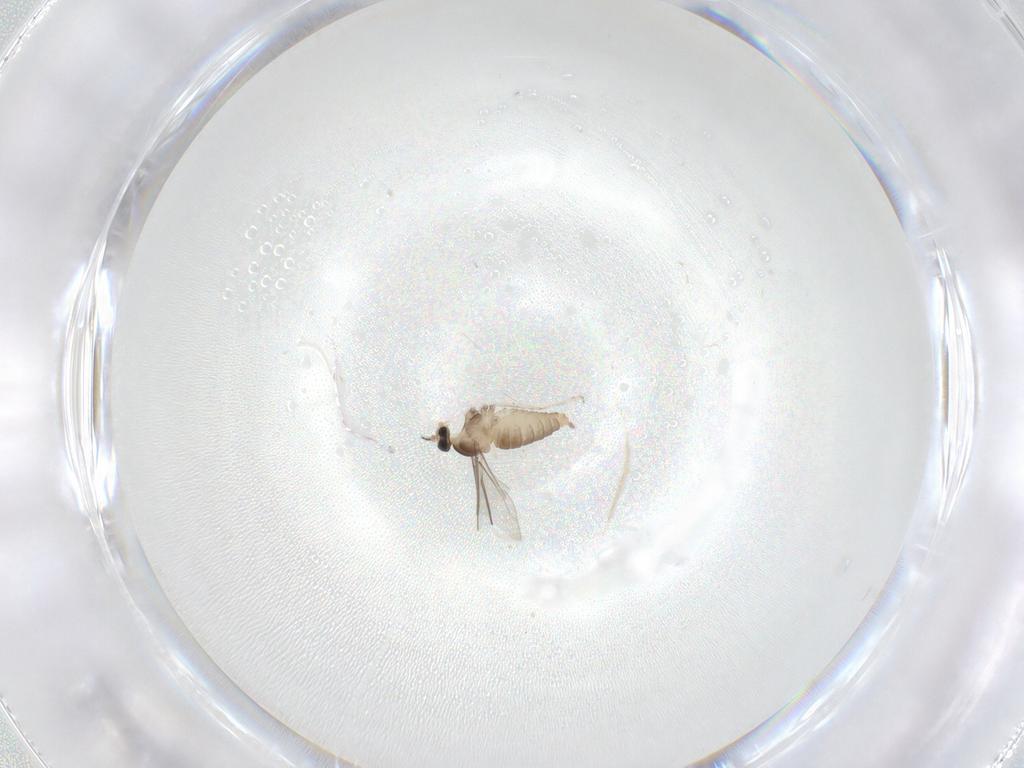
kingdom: Animalia
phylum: Arthropoda
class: Insecta
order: Diptera
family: Cecidomyiidae
